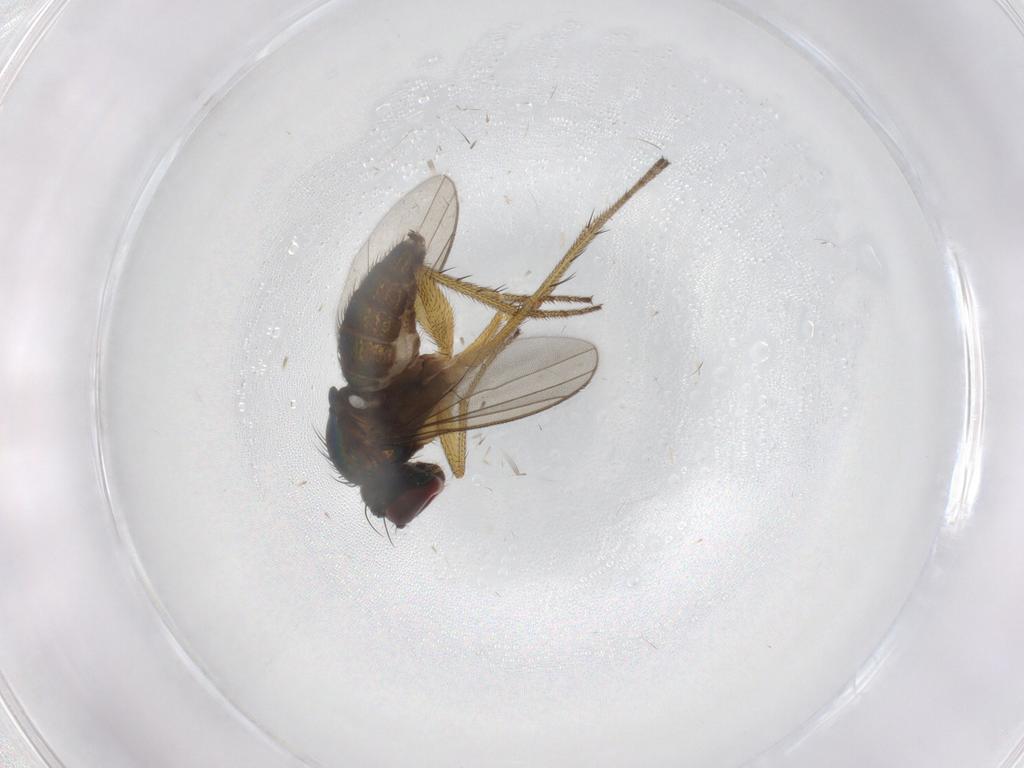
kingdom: Animalia
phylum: Arthropoda
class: Insecta
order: Diptera
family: Dolichopodidae
